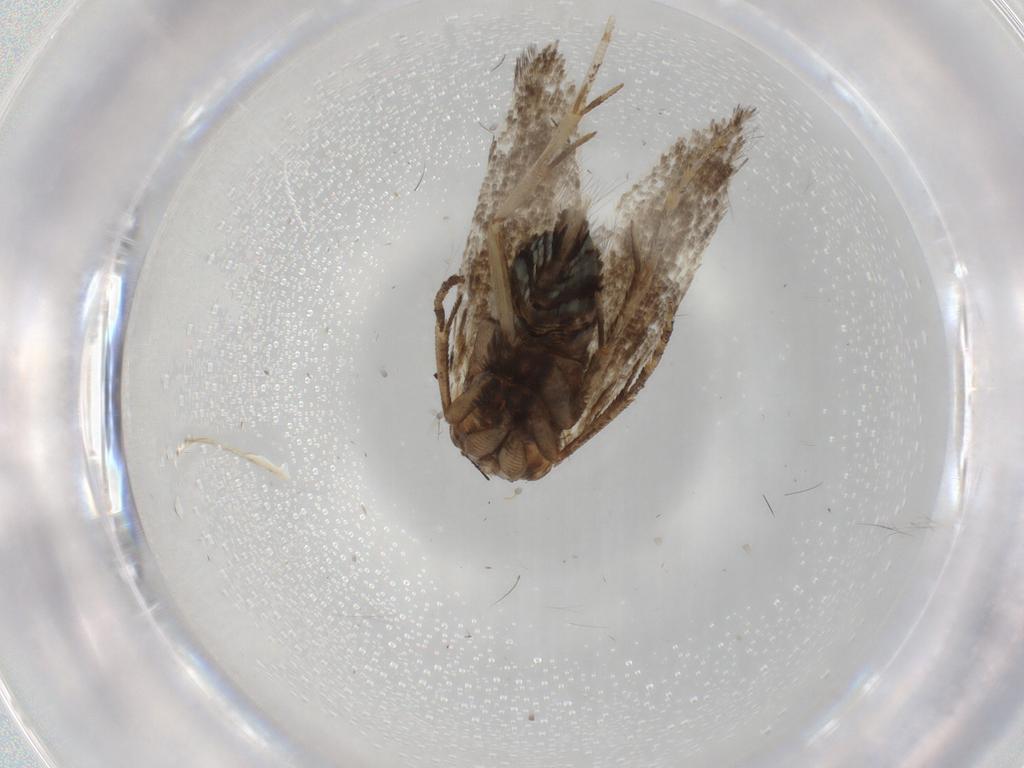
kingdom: Animalia
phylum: Arthropoda
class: Insecta
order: Lepidoptera
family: Momphidae
